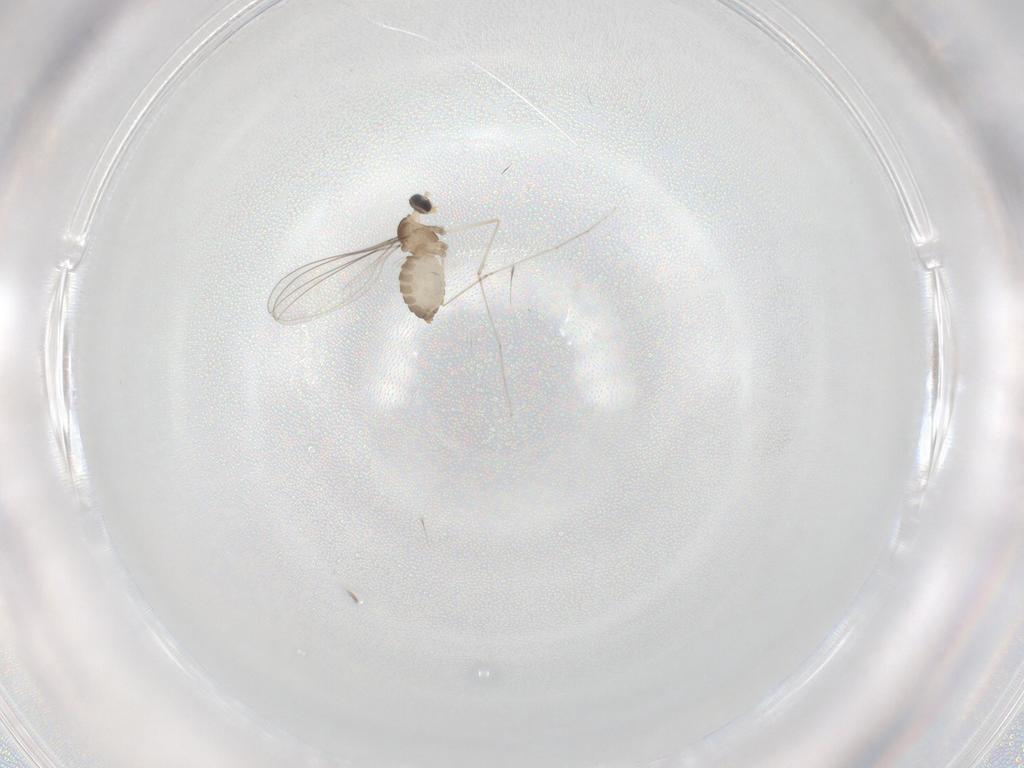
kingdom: Animalia
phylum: Arthropoda
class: Insecta
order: Diptera
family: Cecidomyiidae
